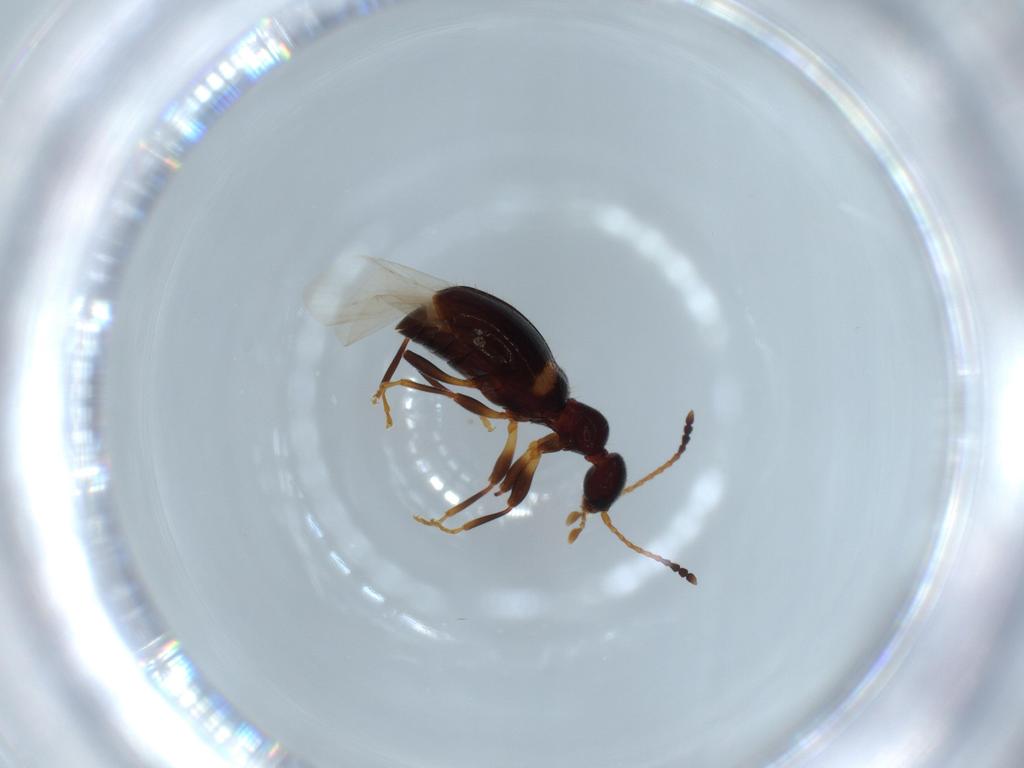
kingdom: Animalia
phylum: Arthropoda
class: Insecta
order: Coleoptera
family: Anthicidae
